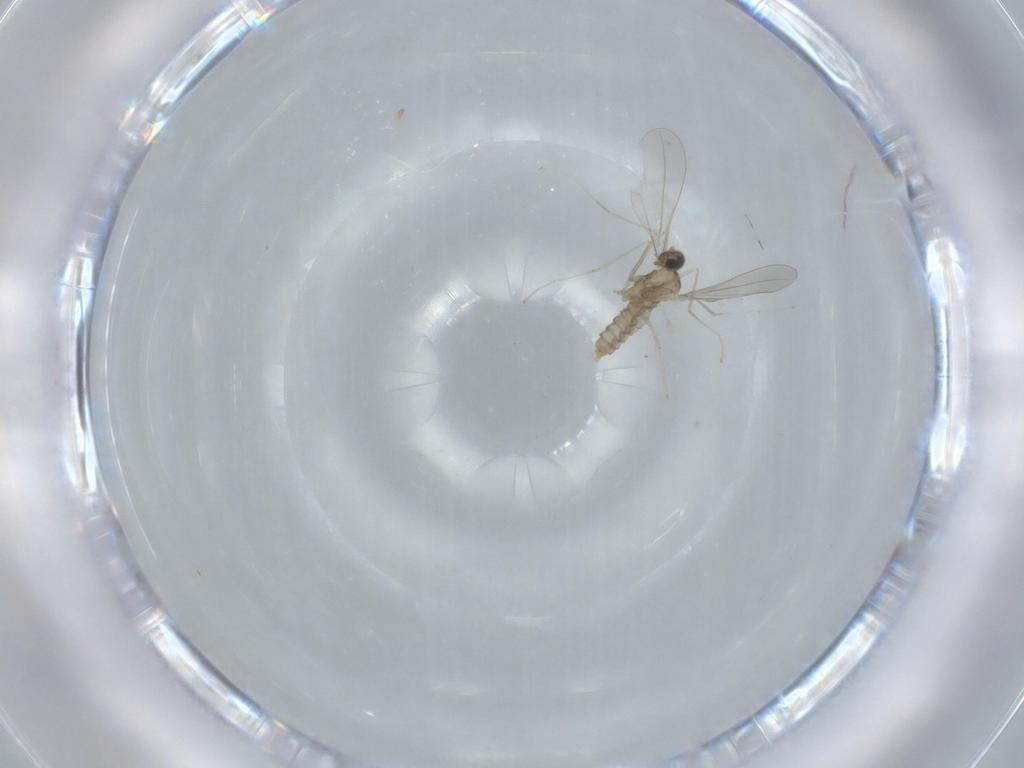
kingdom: Animalia
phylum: Arthropoda
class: Insecta
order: Diptera
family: Cecidomyiidae
